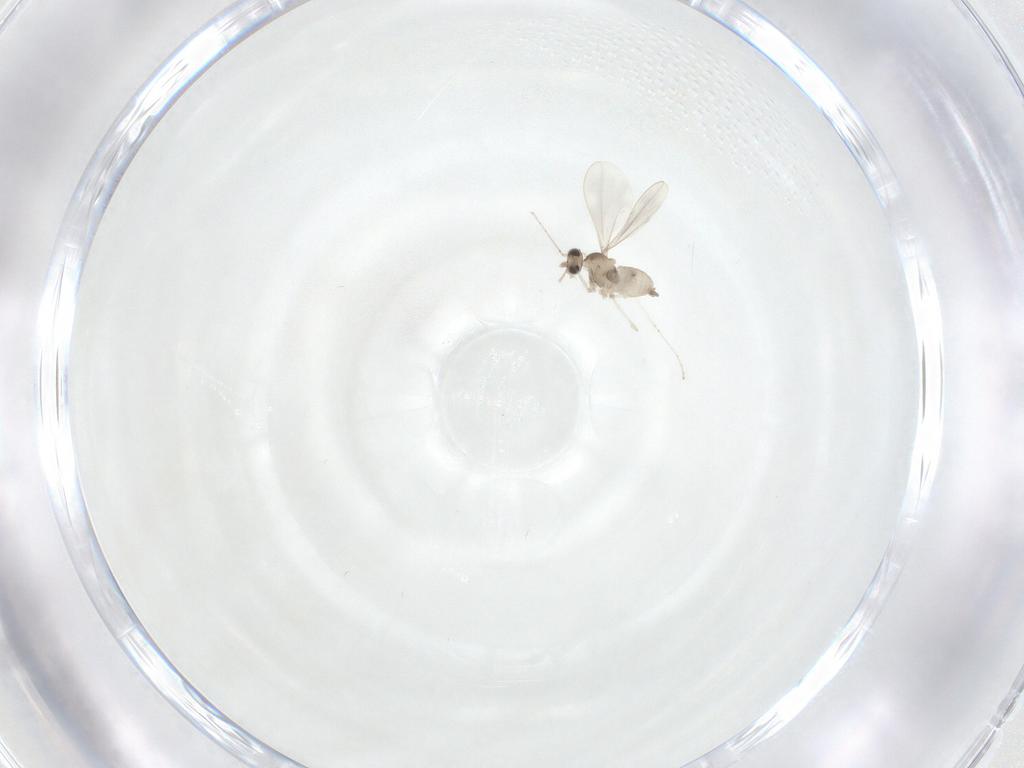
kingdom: Animalia
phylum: Arthropoda
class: Insecta
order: Diptera
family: Cecidomyiidae
